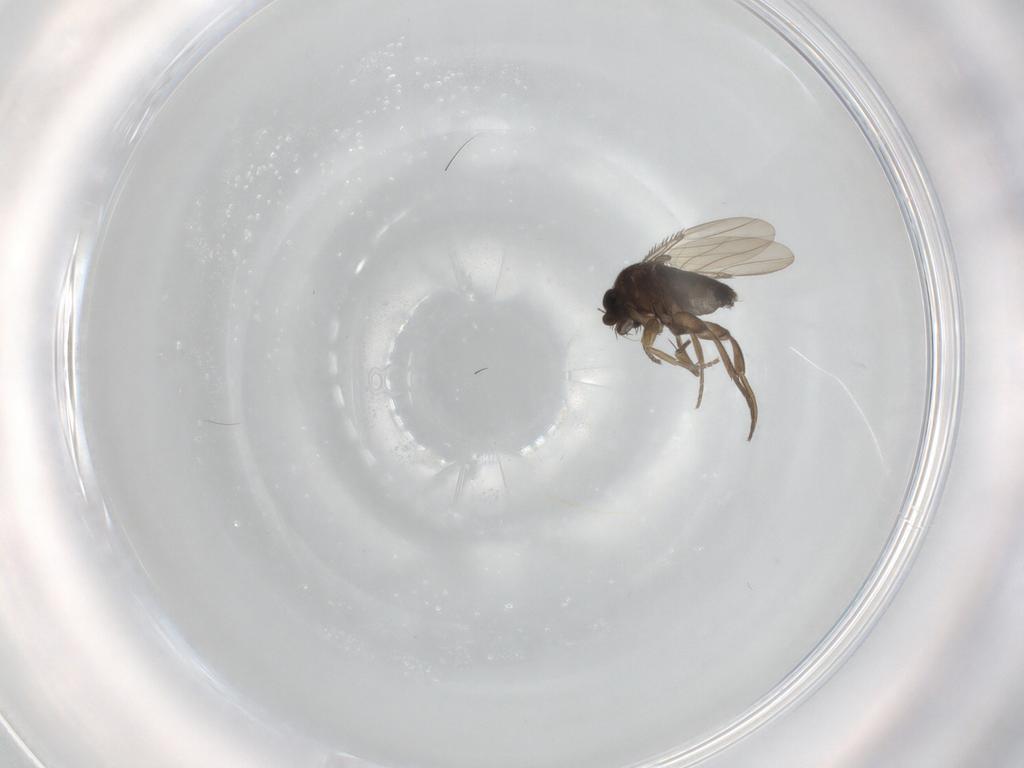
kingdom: Animalia
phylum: Arthropoda
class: Insecta
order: Diptera
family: Phoridae
